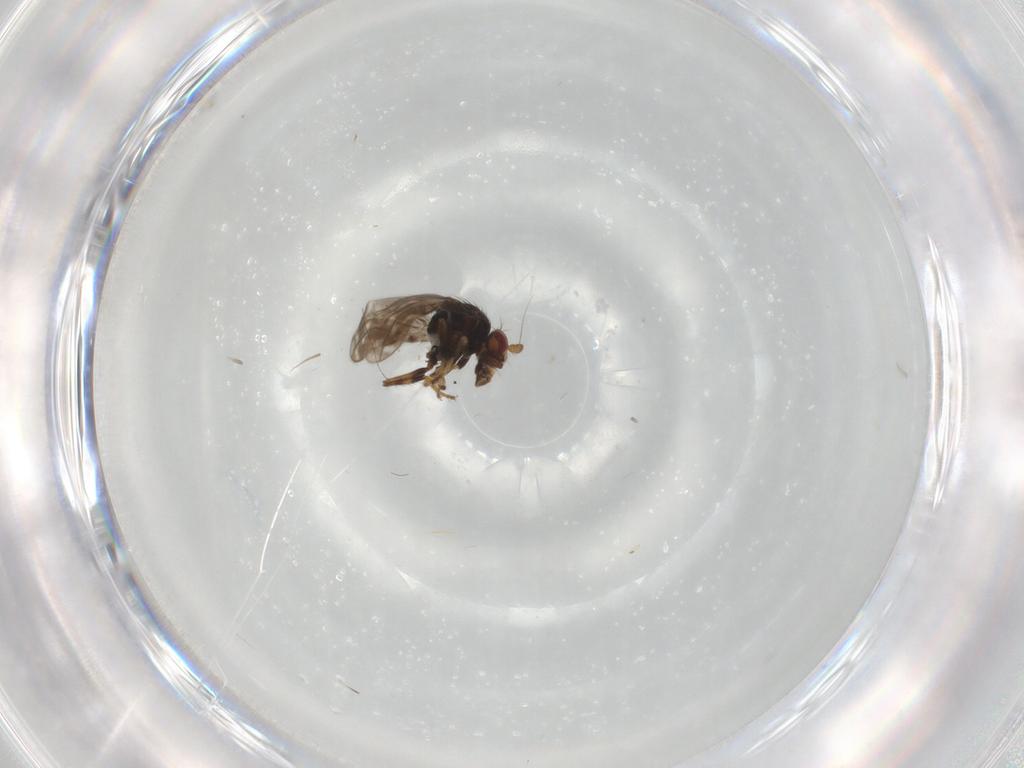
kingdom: Animalia
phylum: Arthropoda
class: Insecta
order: Diptera
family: Sphaeroceridae
